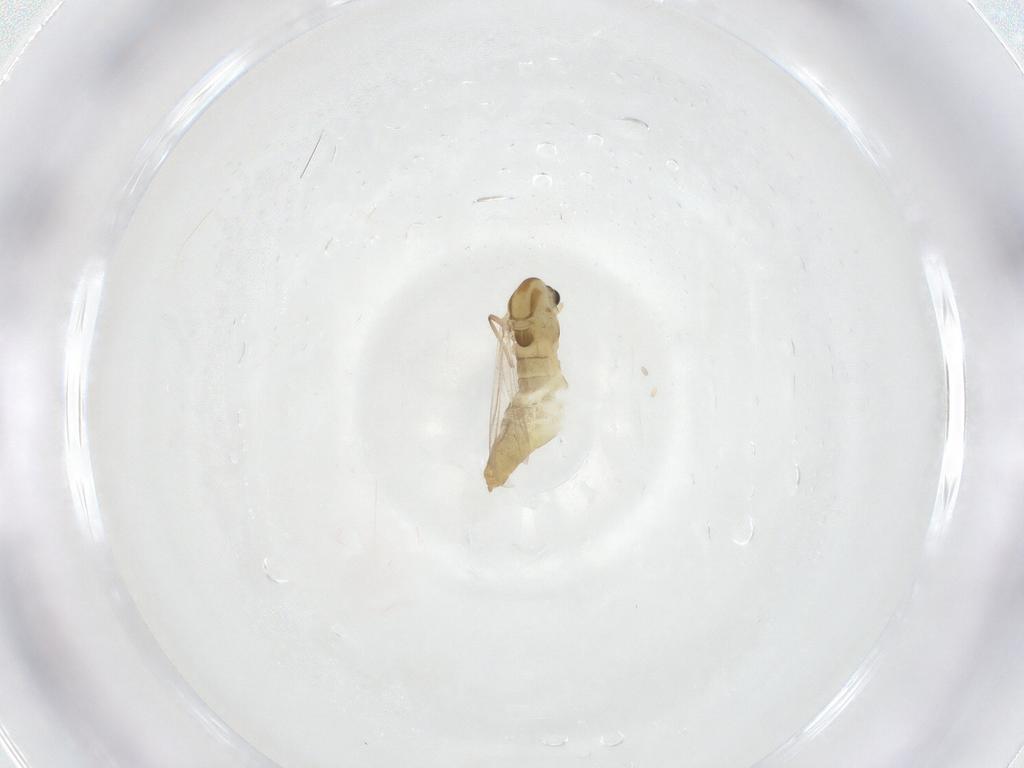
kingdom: Animalia
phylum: Arthropoda
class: Insecta
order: Diptera
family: Chironomidae
